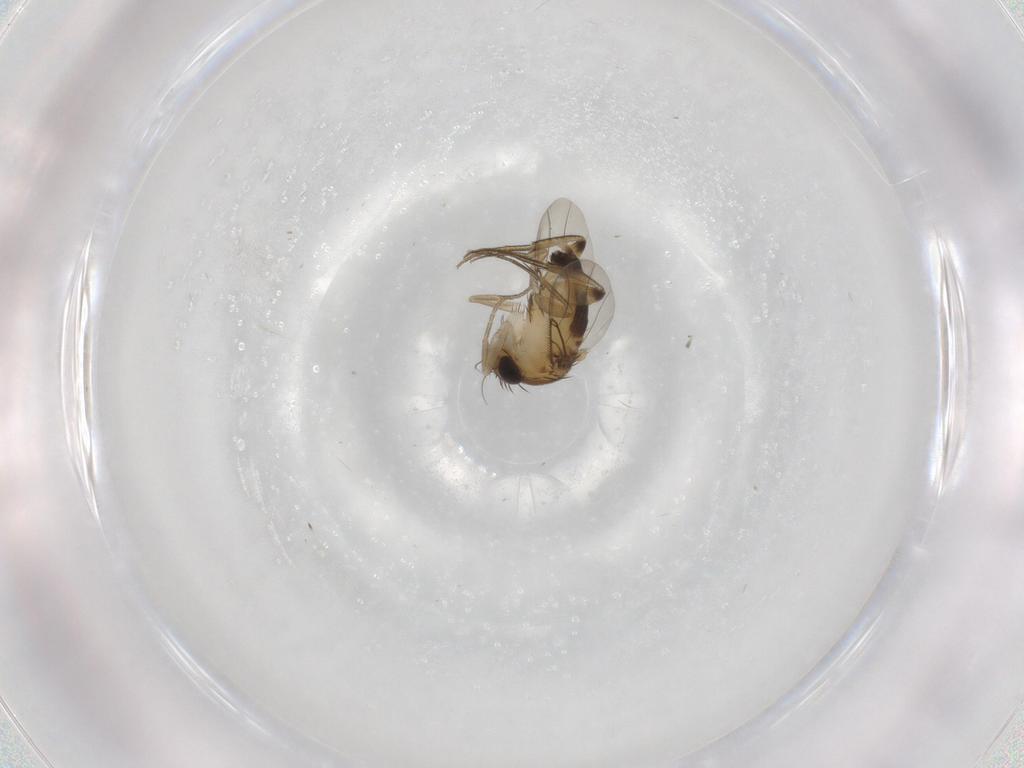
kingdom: Animalia
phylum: Arthropoda
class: Insecta
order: Diptera
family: Phoridae
